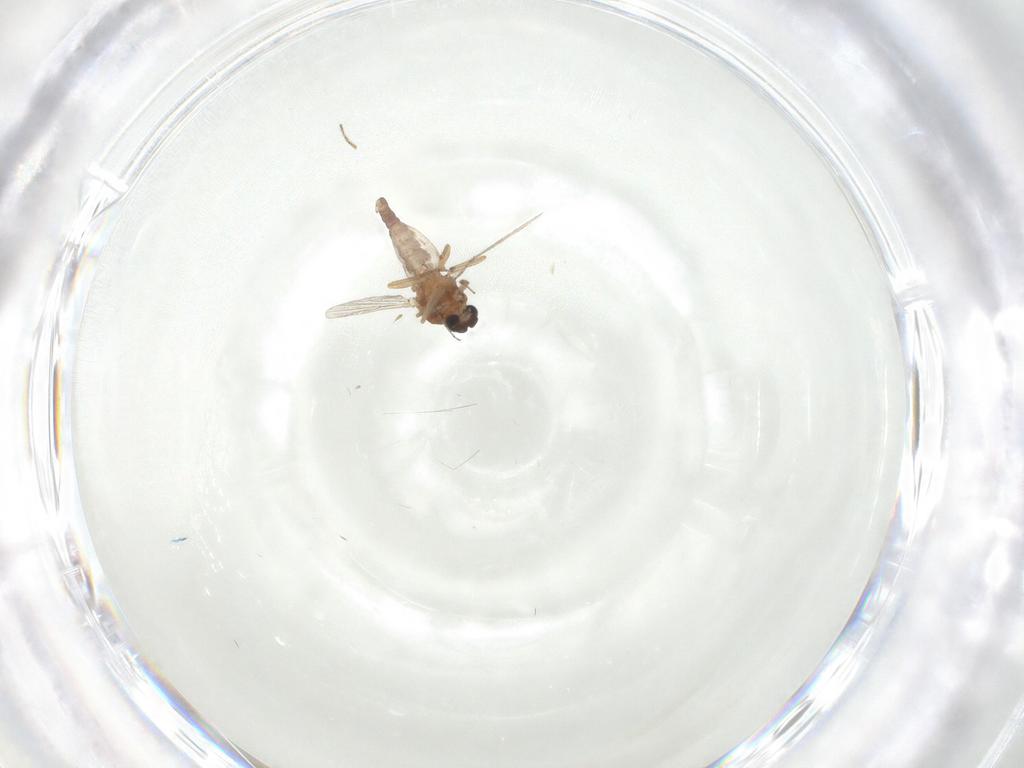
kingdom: Animalia
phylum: Arthropoda
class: Insecta
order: Diptera
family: Ceratopogonidae
